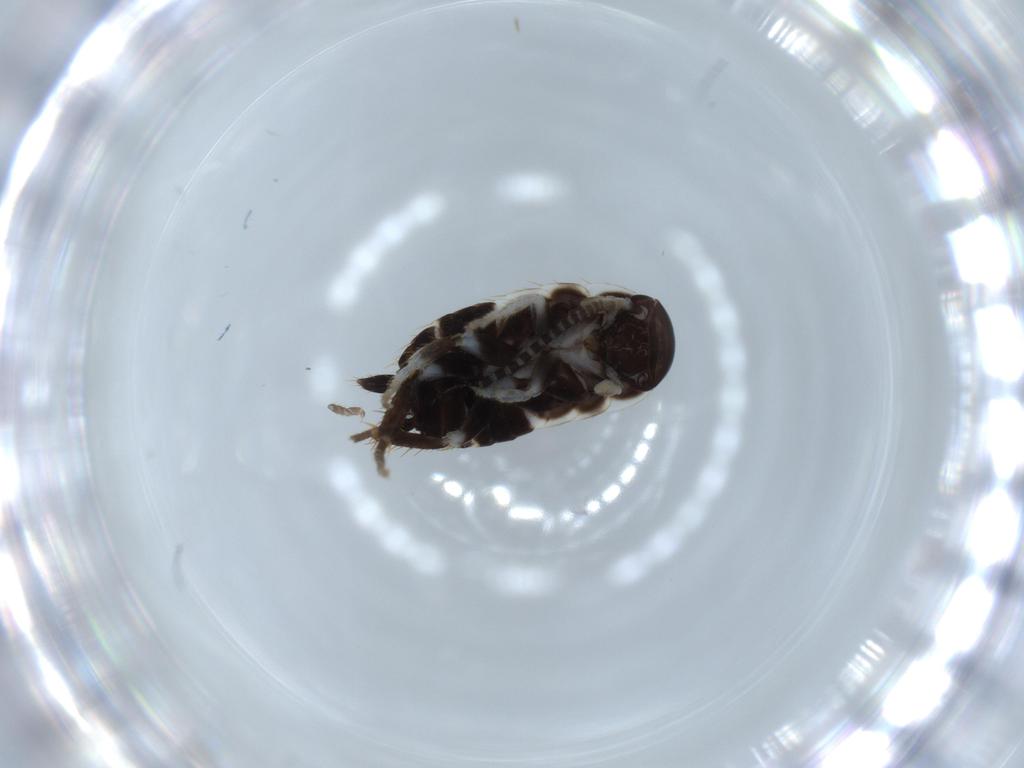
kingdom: Animalia
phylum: Arthropoda
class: Insecta
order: Blattodea
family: Ectobiidae
